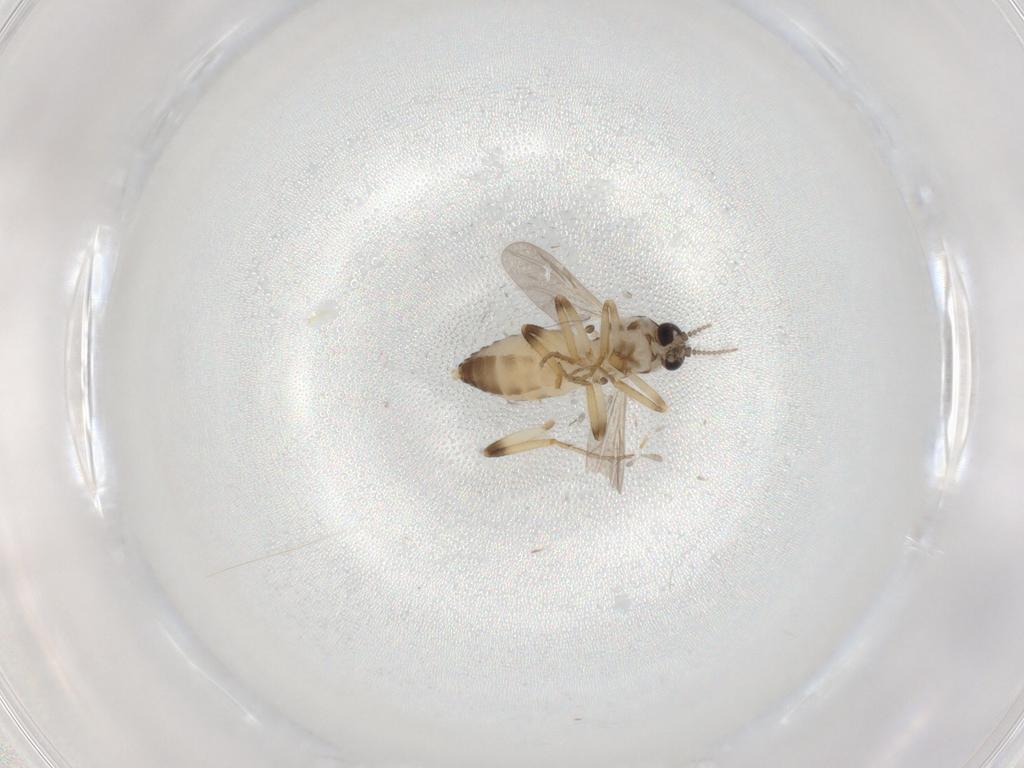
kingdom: Animalia
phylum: Arthropoda
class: Insecta
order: Diptera
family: Ceratopogonidae
